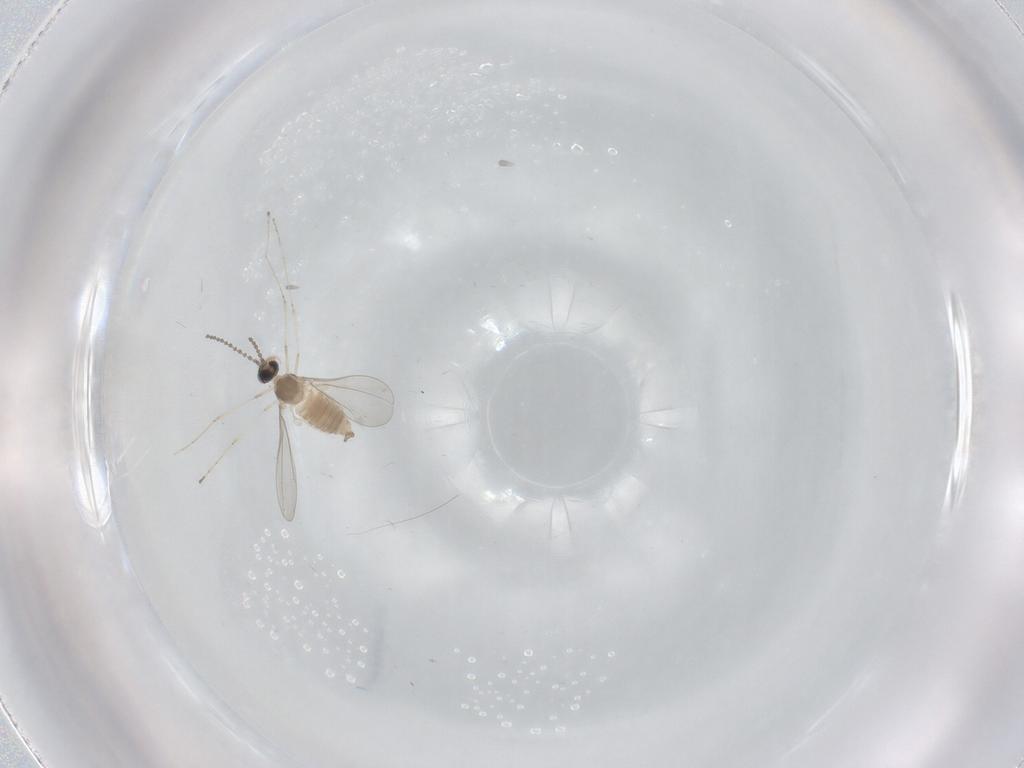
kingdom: Animalia
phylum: Arthropoda
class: Insecta
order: Diptera
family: Cecidomyiidae
